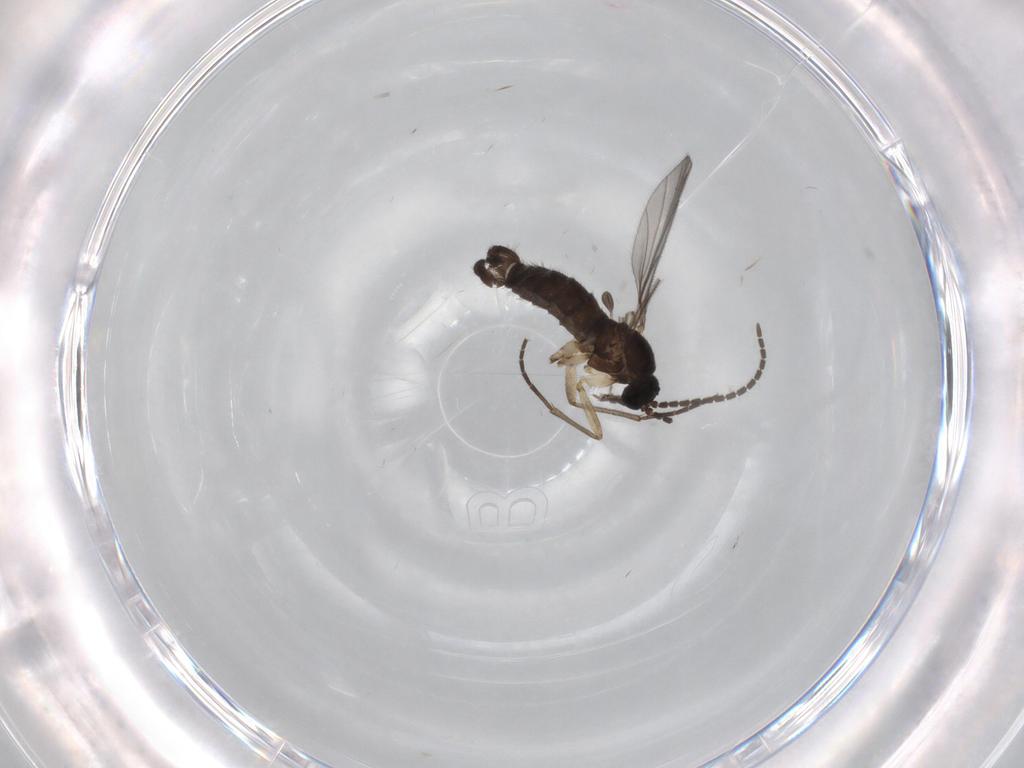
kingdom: Animalia
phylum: Arthropoda
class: Insecta
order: Diptera
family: Sciaridae
